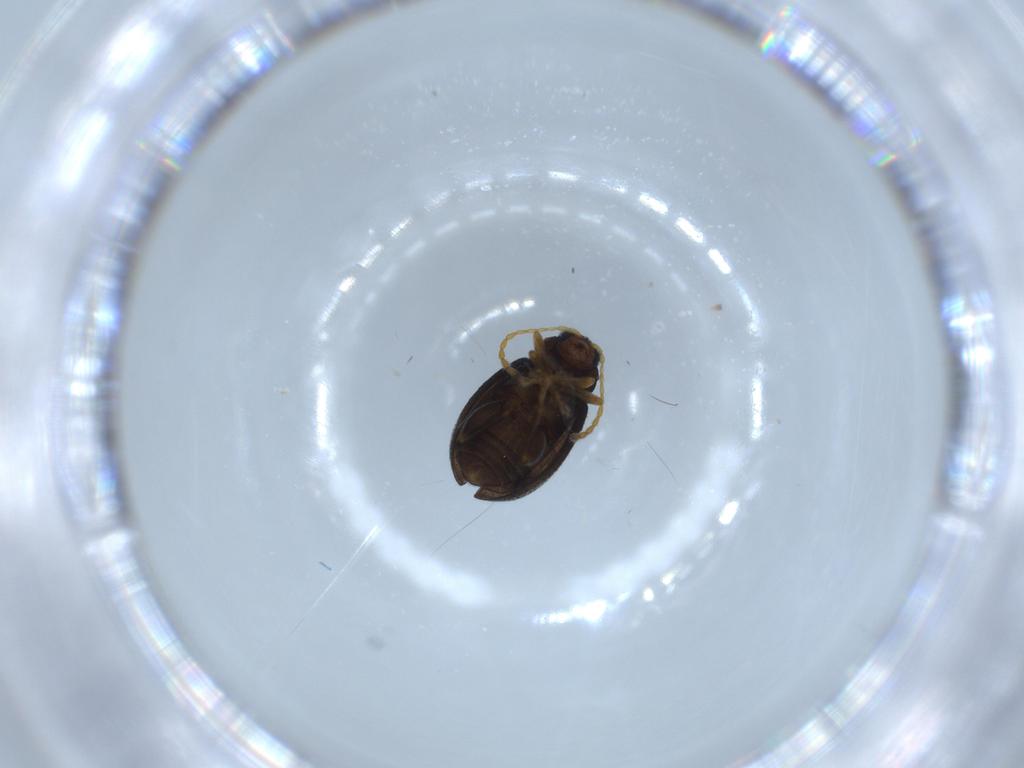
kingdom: Animalia
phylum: Arthropoda
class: Insecta
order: Coleoptera
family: Chrysomelidae
